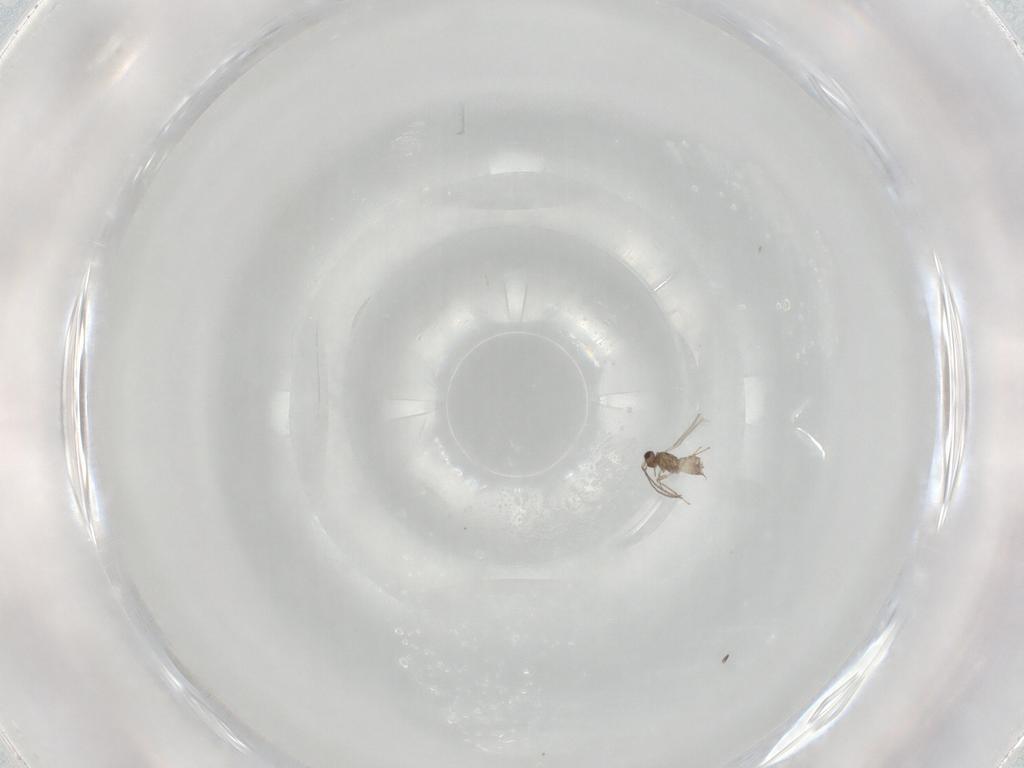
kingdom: Animalia
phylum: Arthropoda
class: Insecta
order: Hymenoptera
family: Mymaridae
